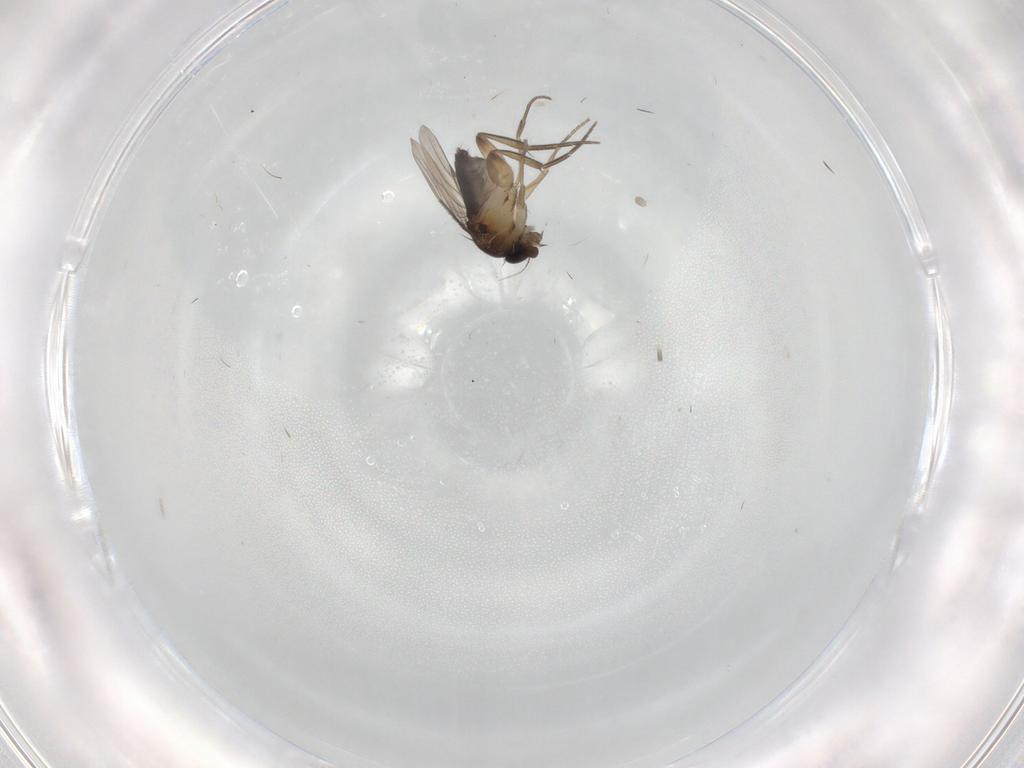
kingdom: Animalia
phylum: Arthropoda
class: Insecta
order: Diptera
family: Phoridae
